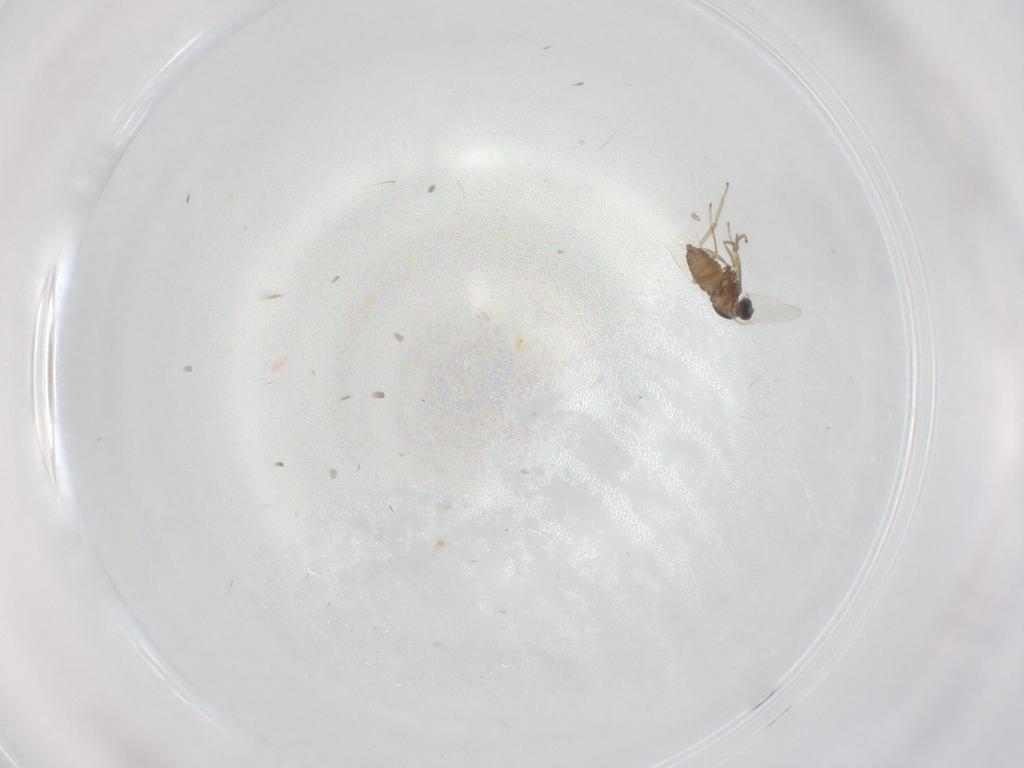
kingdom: Animalia
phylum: Arthropoda
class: Insecta
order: Diptera
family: Cecidomyiidae
